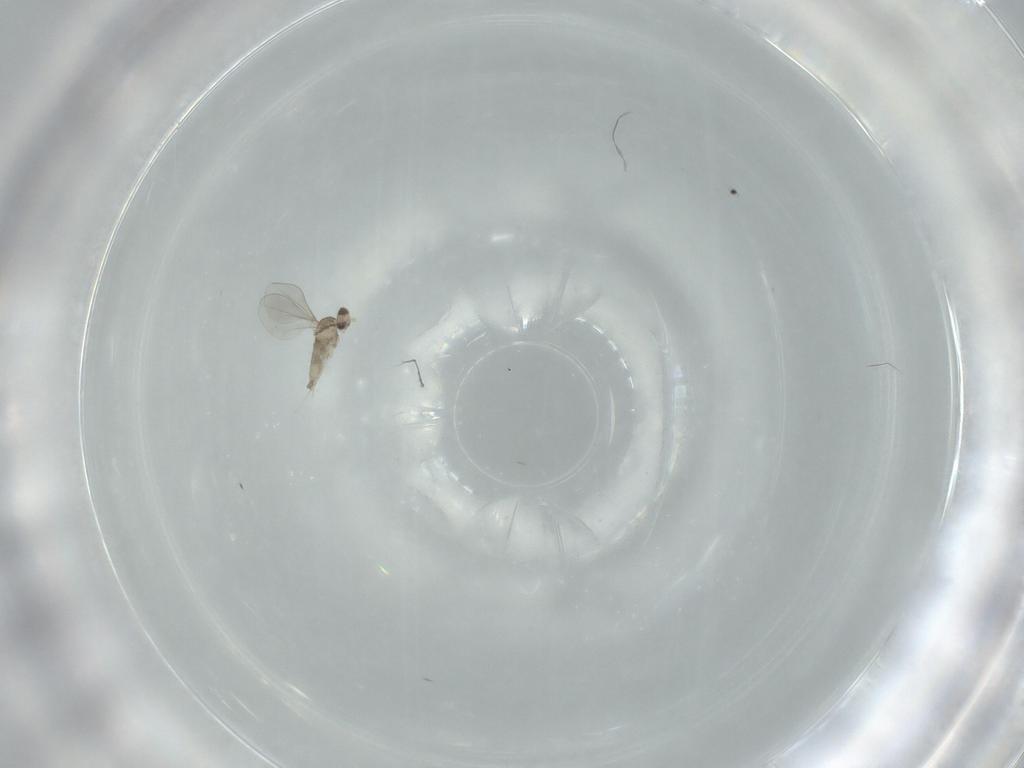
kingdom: Animalia
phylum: Arthropoda
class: Insecta
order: Diptera
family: Sciaridae
